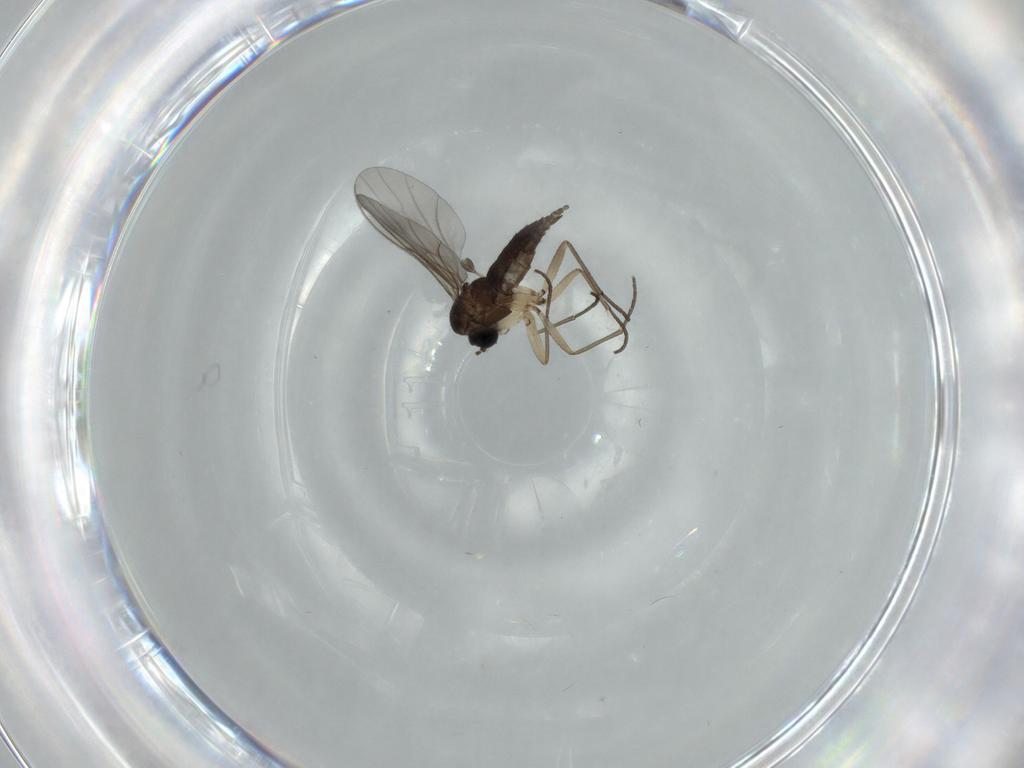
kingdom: Animalia
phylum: Arthropoda
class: Insecta
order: Diptera
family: Sciaridae
